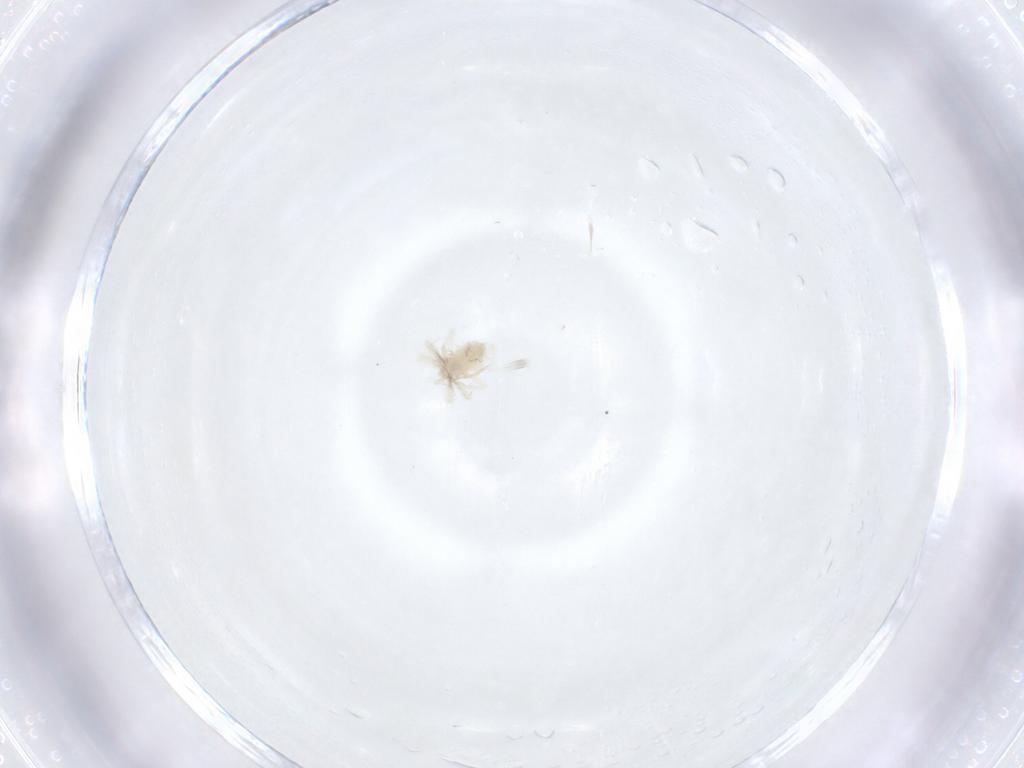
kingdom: Animalia
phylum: Arthropoda
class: Arachnida
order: Trombidiformes
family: Anystidae
